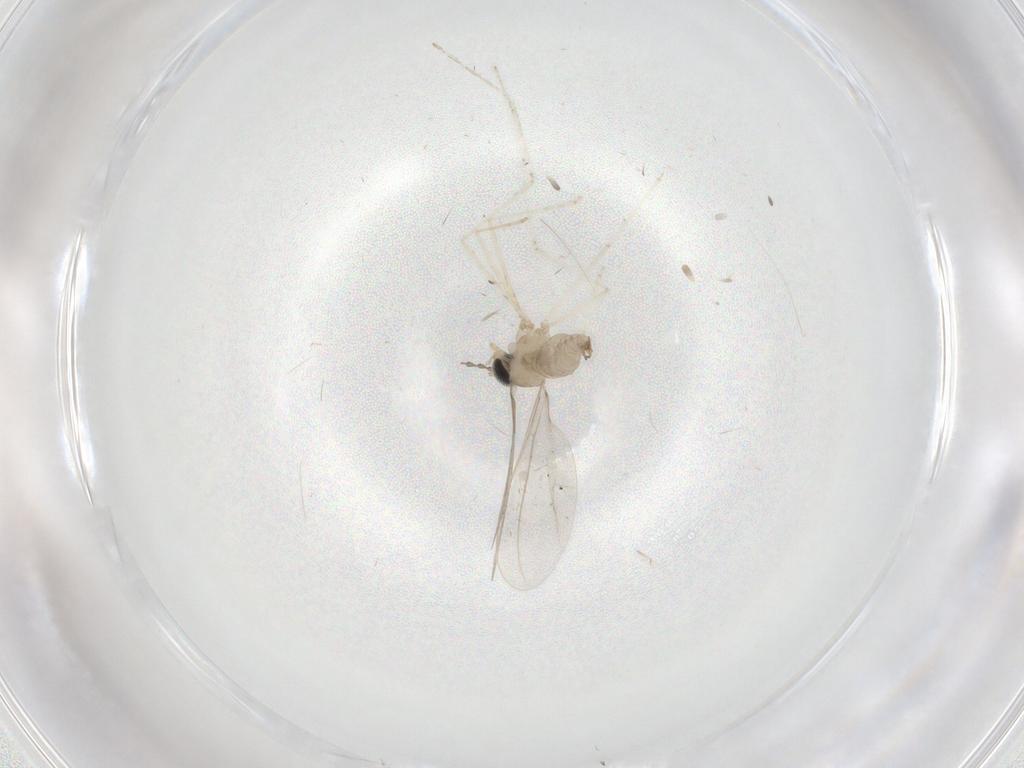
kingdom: Animalia
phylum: Arthropoda
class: Insecta
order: Diptera
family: Cecidomyiidae
